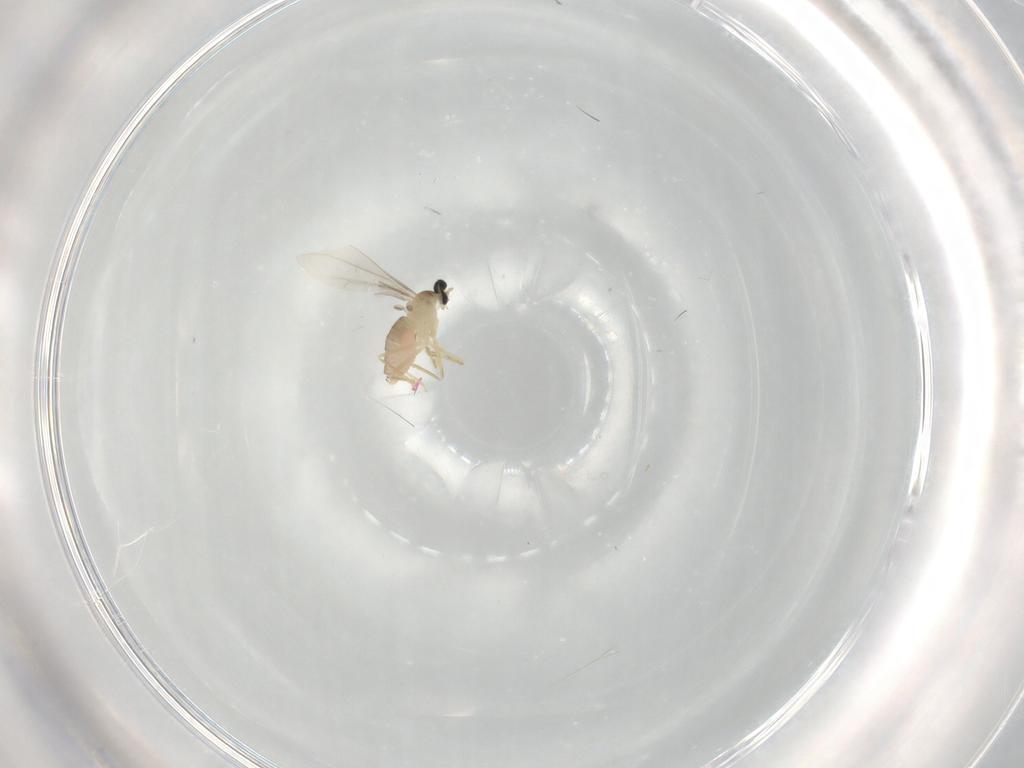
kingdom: Animalia
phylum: Arthropoda
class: Insecta
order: Diptera
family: Cecidomyiidae
